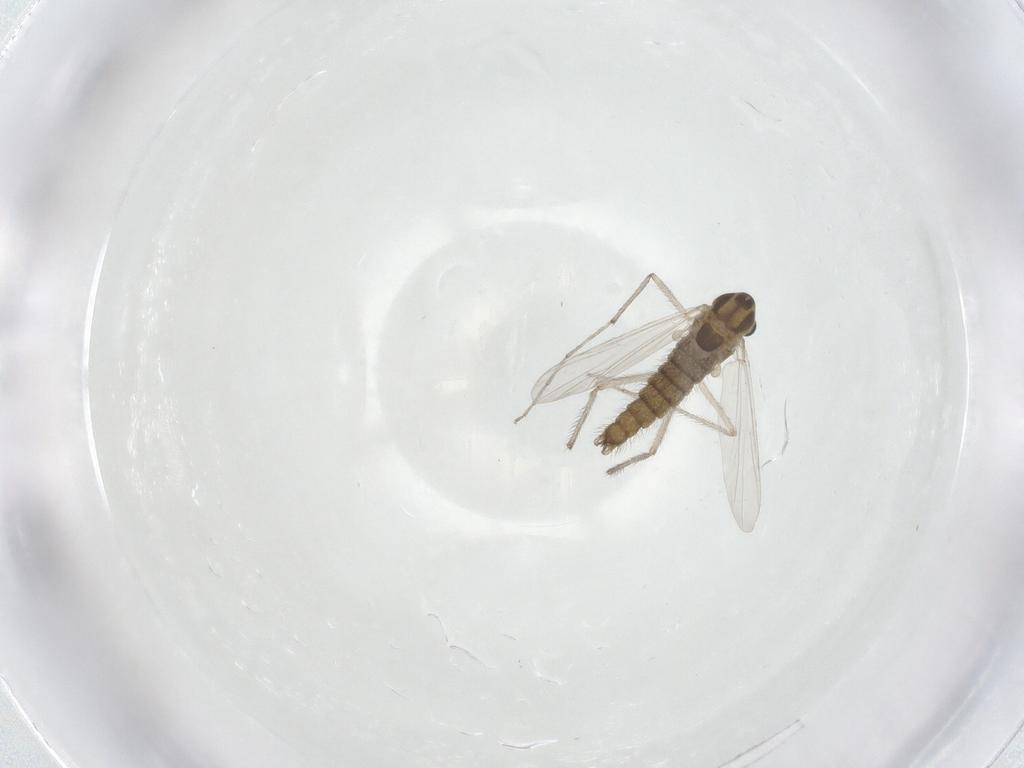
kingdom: Animalia
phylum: Arthropoda
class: Insecta
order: Diptera
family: Chironomidae
